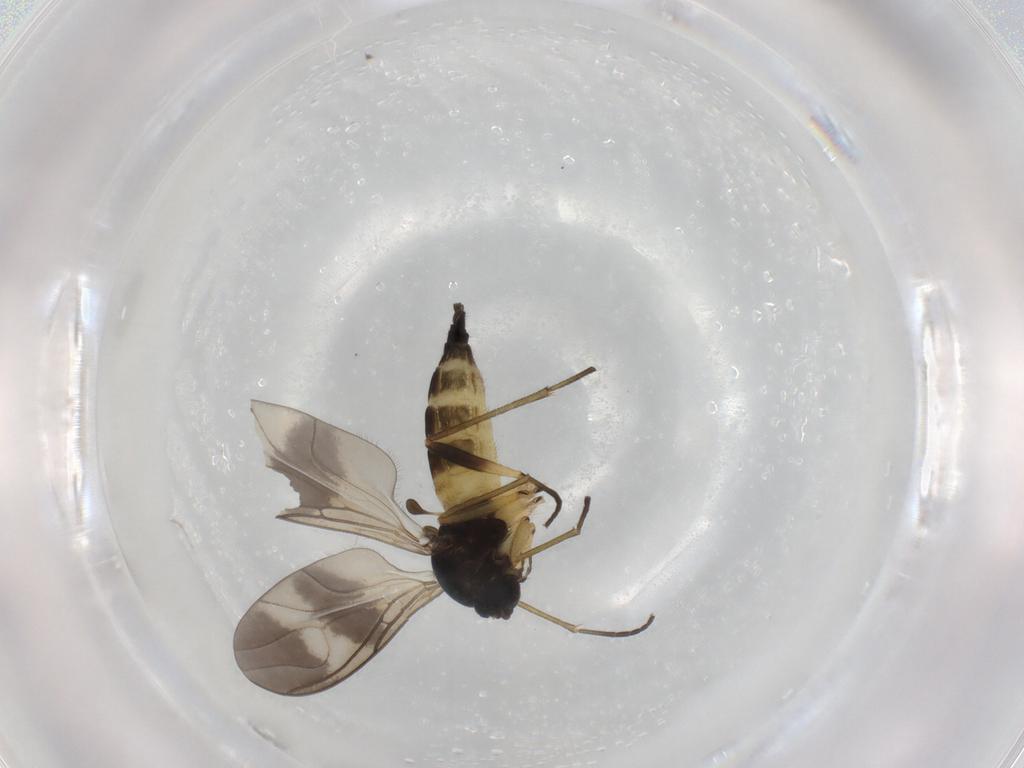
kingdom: Animalia
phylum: Arthropoda
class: Insecta
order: Diptera
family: Sciaridae
